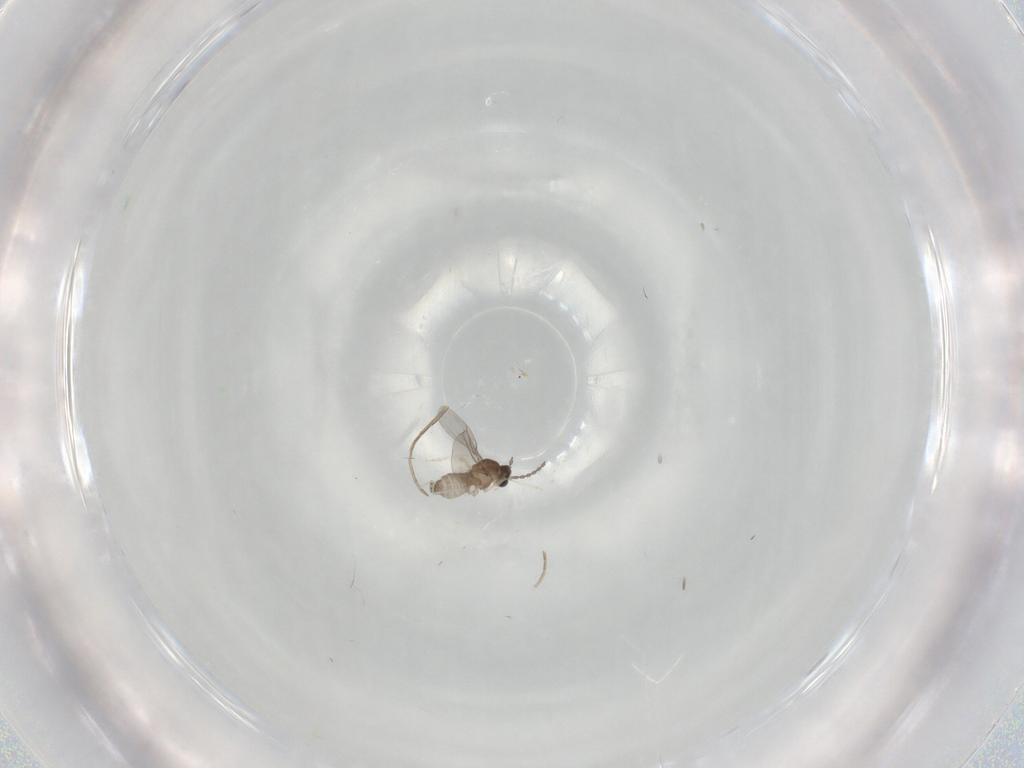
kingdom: Animalia
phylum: Arthropoda
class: Insecta
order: Diptera
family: Cecidomyiidae
